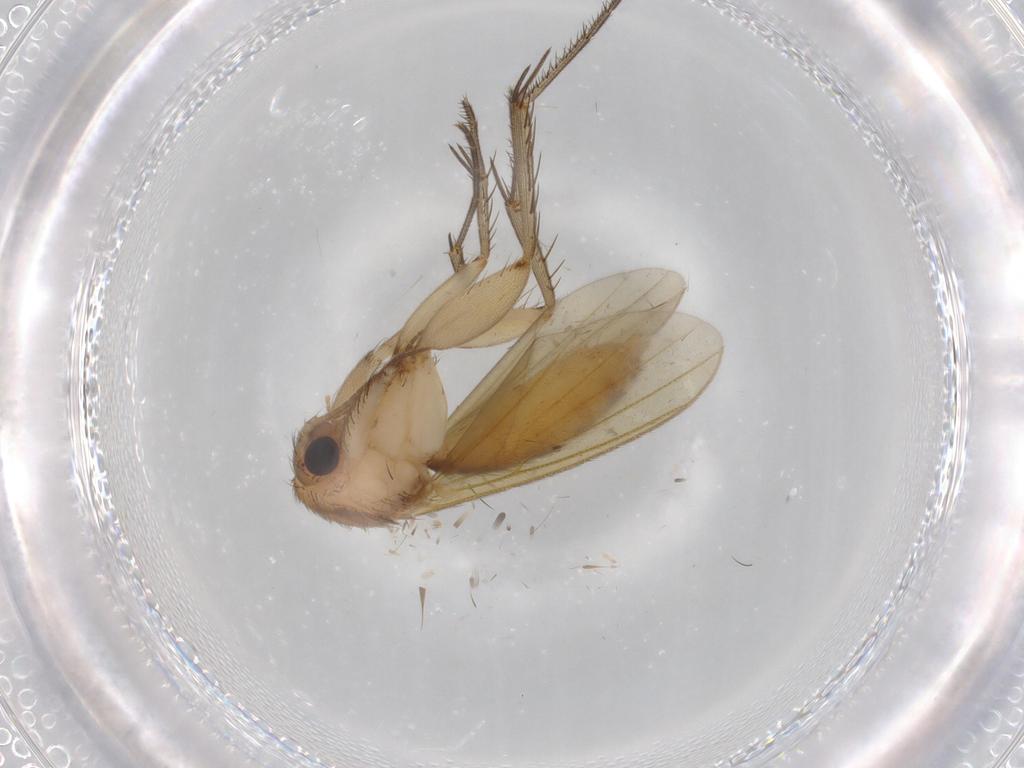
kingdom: Animalia
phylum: Arthropoda
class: Insecta
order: Diptera
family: Mycetophilidae
